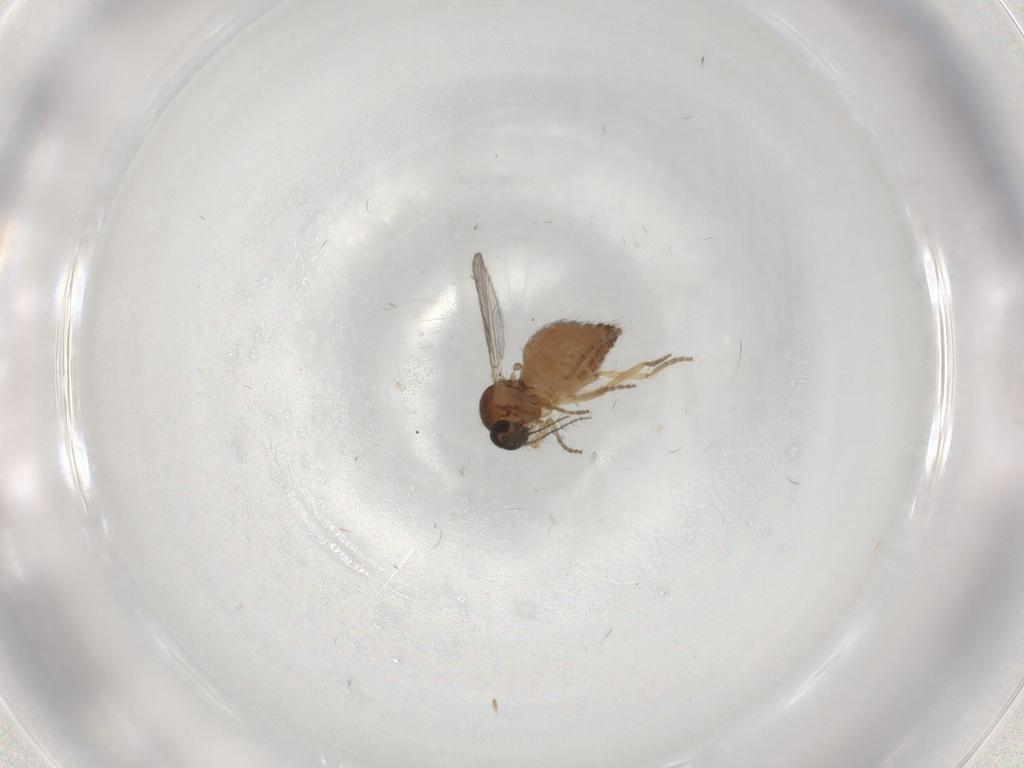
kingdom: Animalia
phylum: Arthropoda
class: Insecta
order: Diptera
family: Ceratopogonidae
